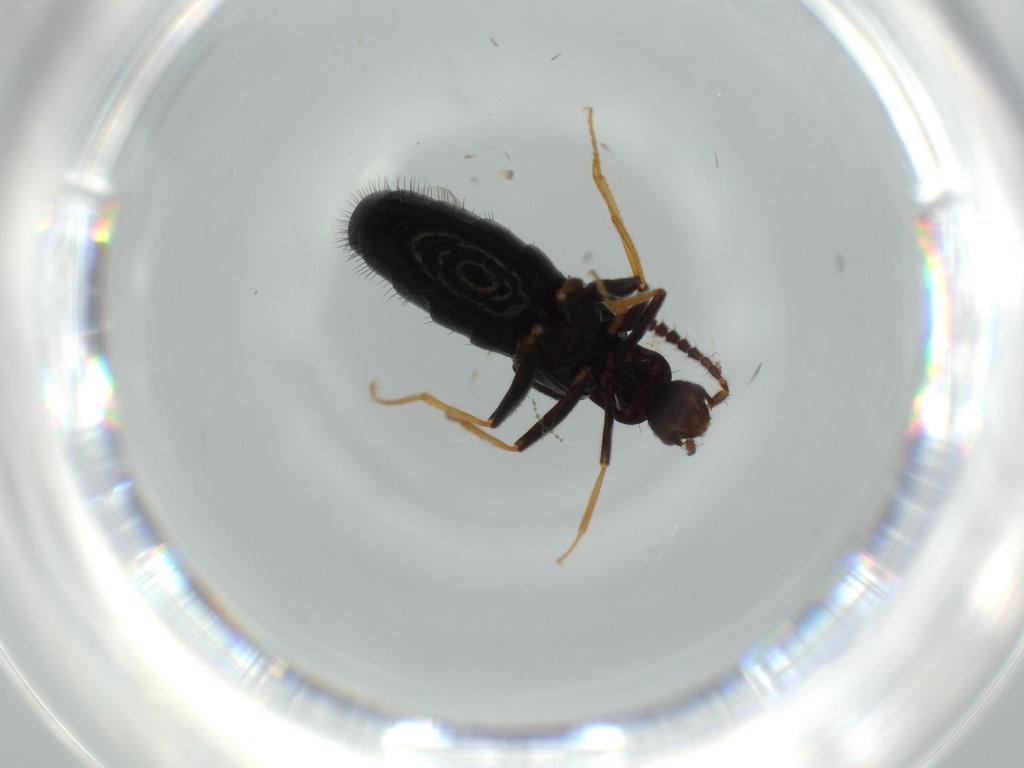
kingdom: Animalia
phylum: Arthropoda
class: Insecta
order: Coleoptera
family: Staphylinidae
